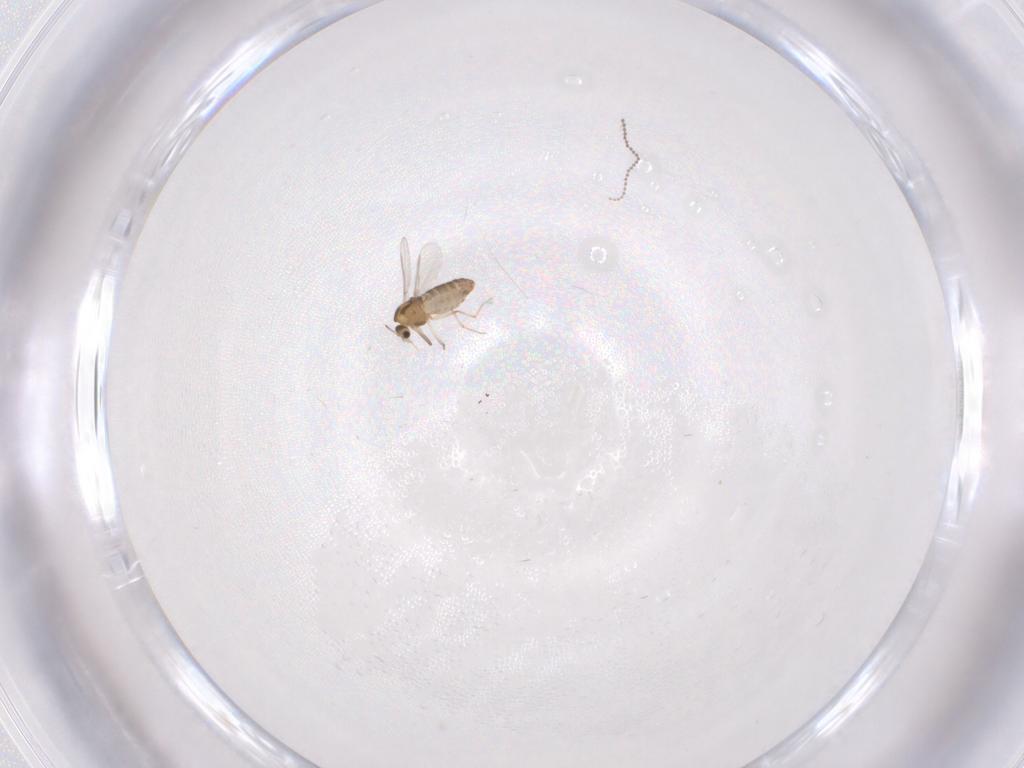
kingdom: Animalia
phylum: Arthropoda
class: Insecta
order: Diptera
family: Chironomidae
